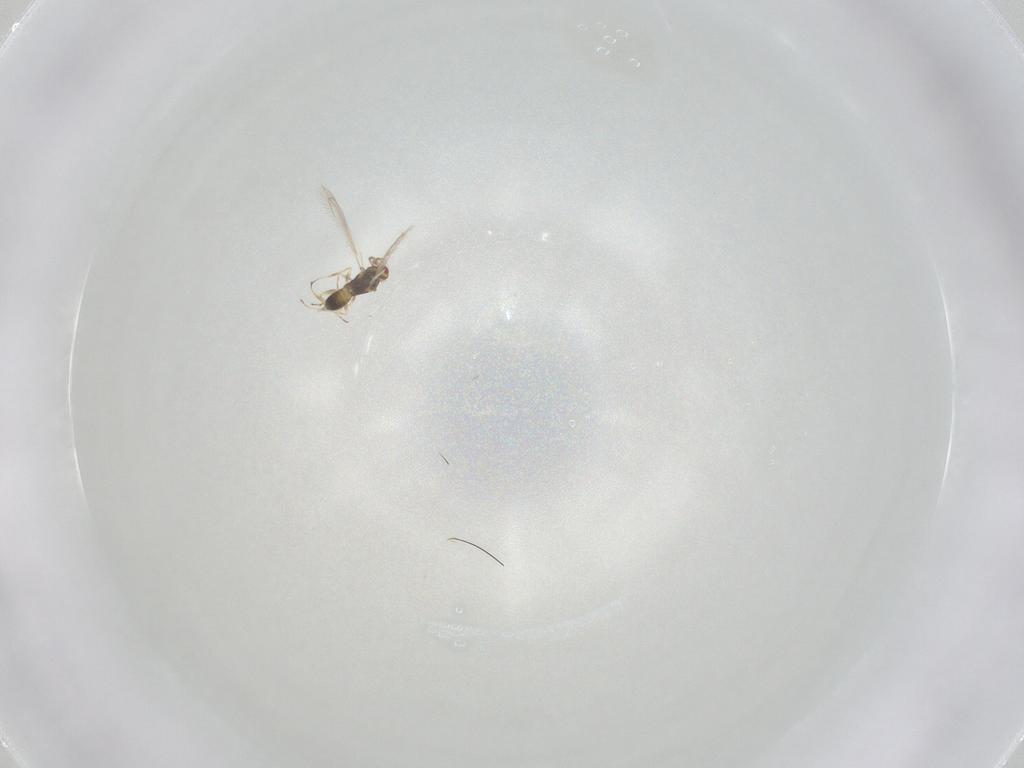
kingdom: Animalia
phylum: Arthropoda
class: Insecta
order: Hymenoptera
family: Eulophidae
